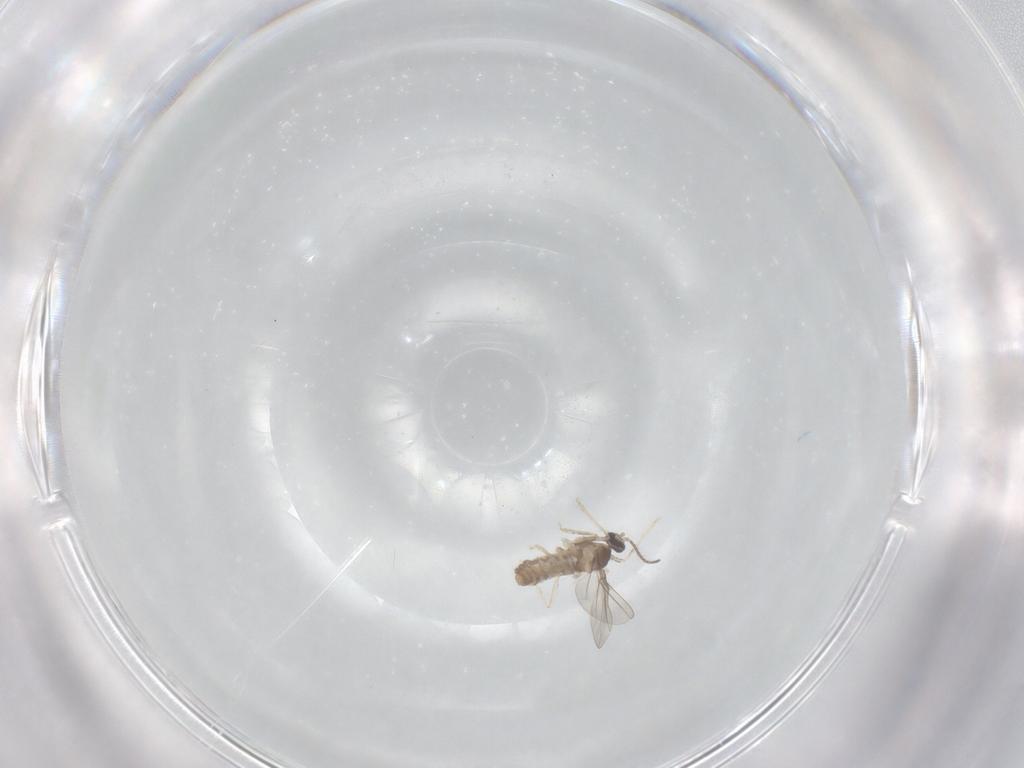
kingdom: Animalia
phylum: Arthropoda
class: Insecta
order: Diptera
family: Cecidomyiidae
